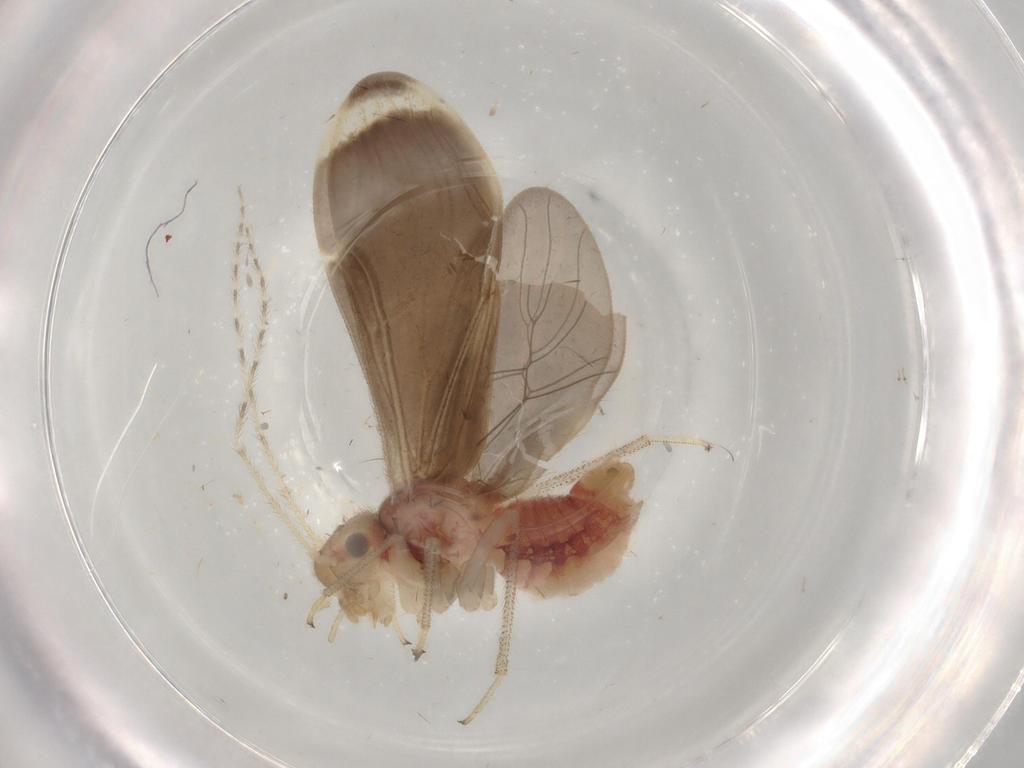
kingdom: Animalia
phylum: Arthropoda
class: Insecta
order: Psocodea
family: Amphipsocidae
